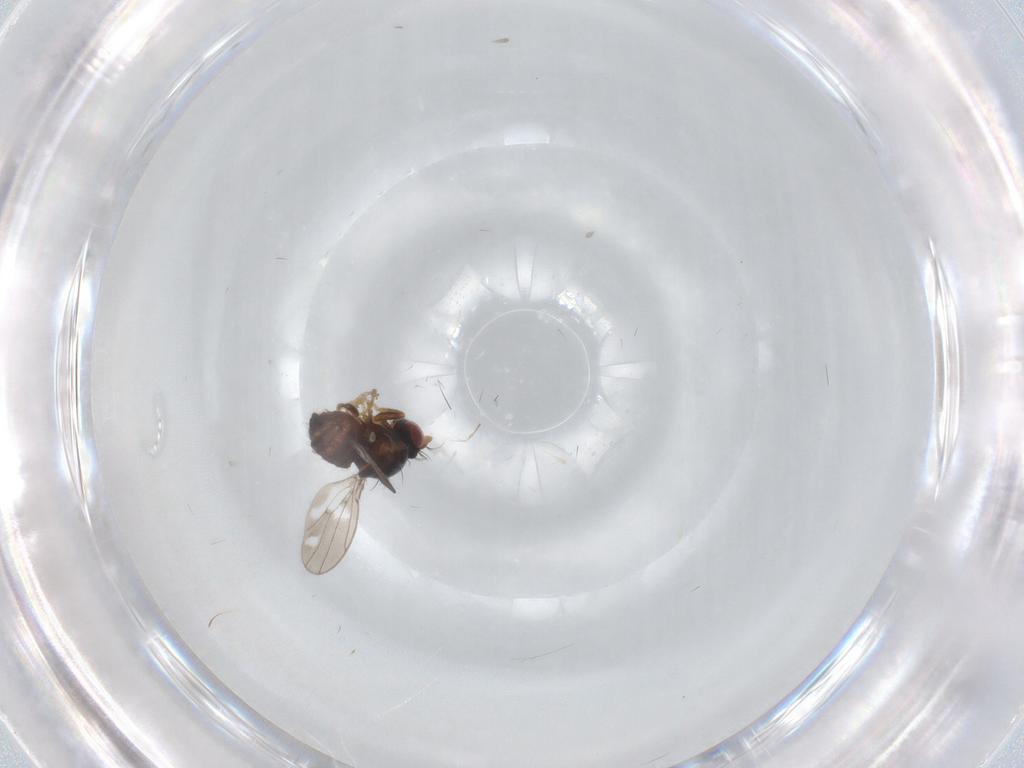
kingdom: Animalia
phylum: Arthropoda
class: Insecta
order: Diptera
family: Ephydridae
